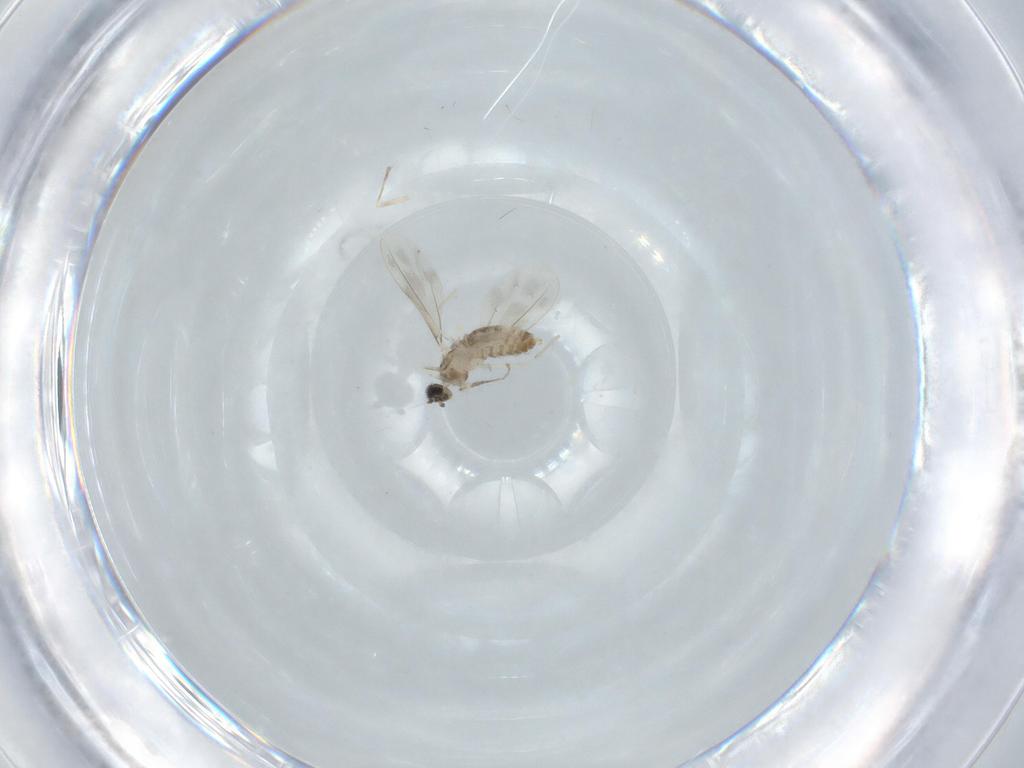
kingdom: Animalia
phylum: Arthropoda
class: Insecta
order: Diptera
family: Cecidomyiidae
